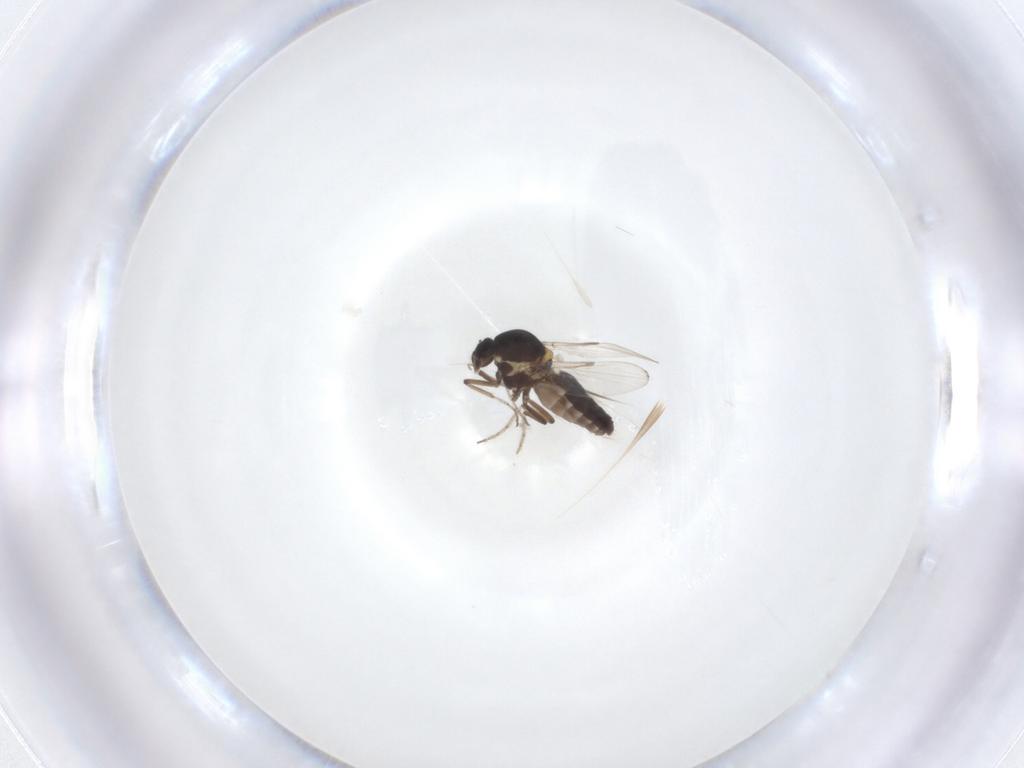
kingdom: Animalia
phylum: Arthropoda
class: Insecta
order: Diptera
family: Ceratopogonidae
